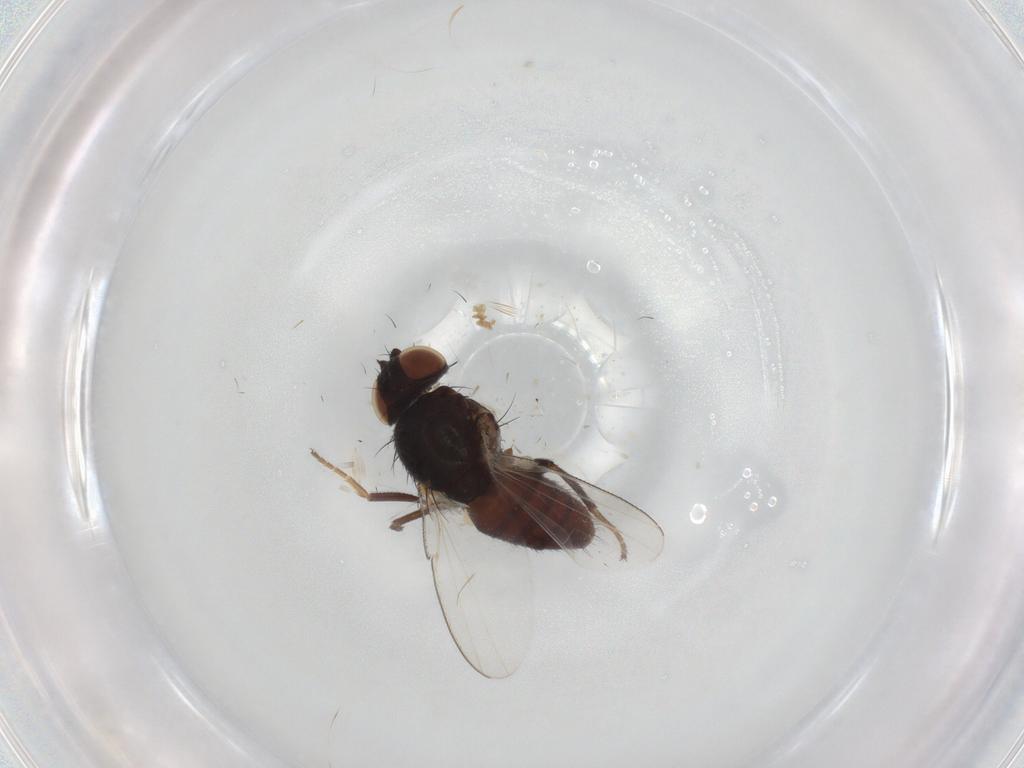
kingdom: Animalia
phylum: Arthropoda
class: Insecta
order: Diptera
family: Milichiidae
